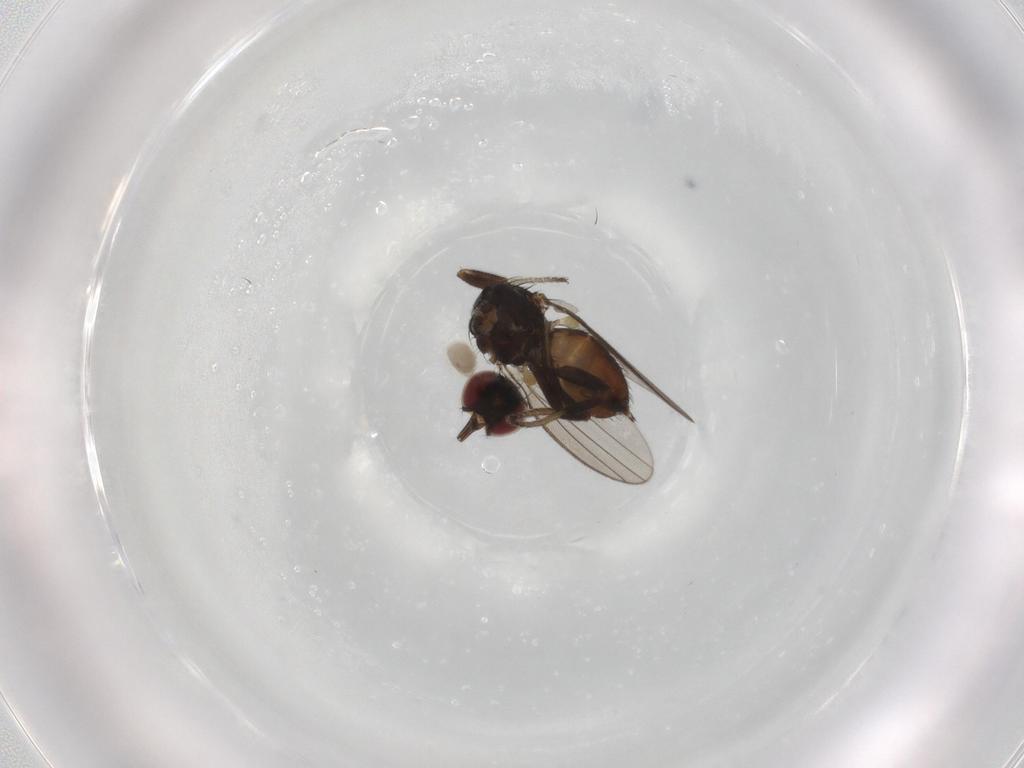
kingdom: Animalia
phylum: Arthropoda
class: Insecta
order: Diptera
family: Milichiidae
